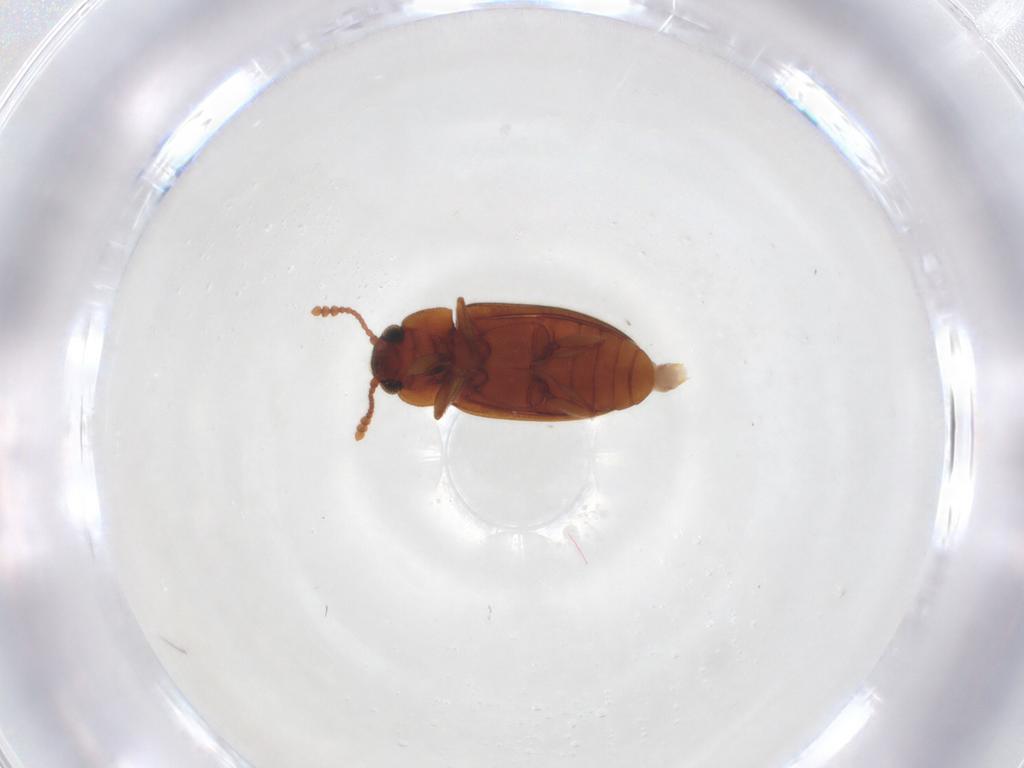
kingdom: Animalia
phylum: Arthropoda
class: Insecta
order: Coleoptera
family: Erotylidae
